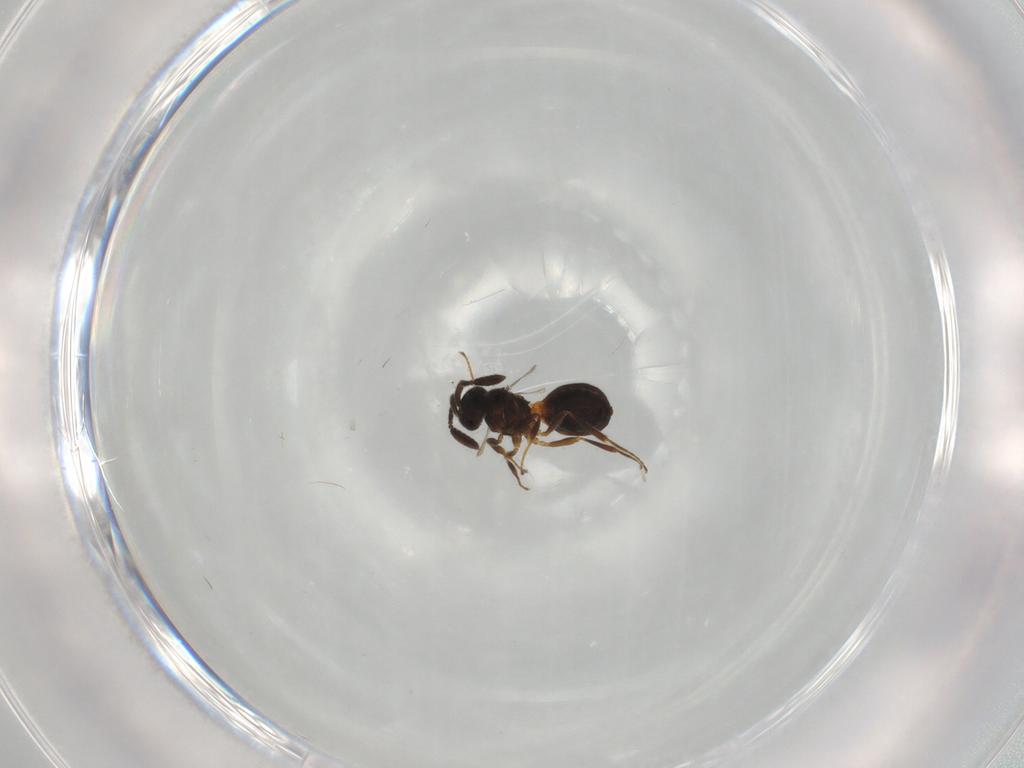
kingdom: Animalia
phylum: Arthropoda
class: Insecta
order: Hymenoptera
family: Scelionidae
